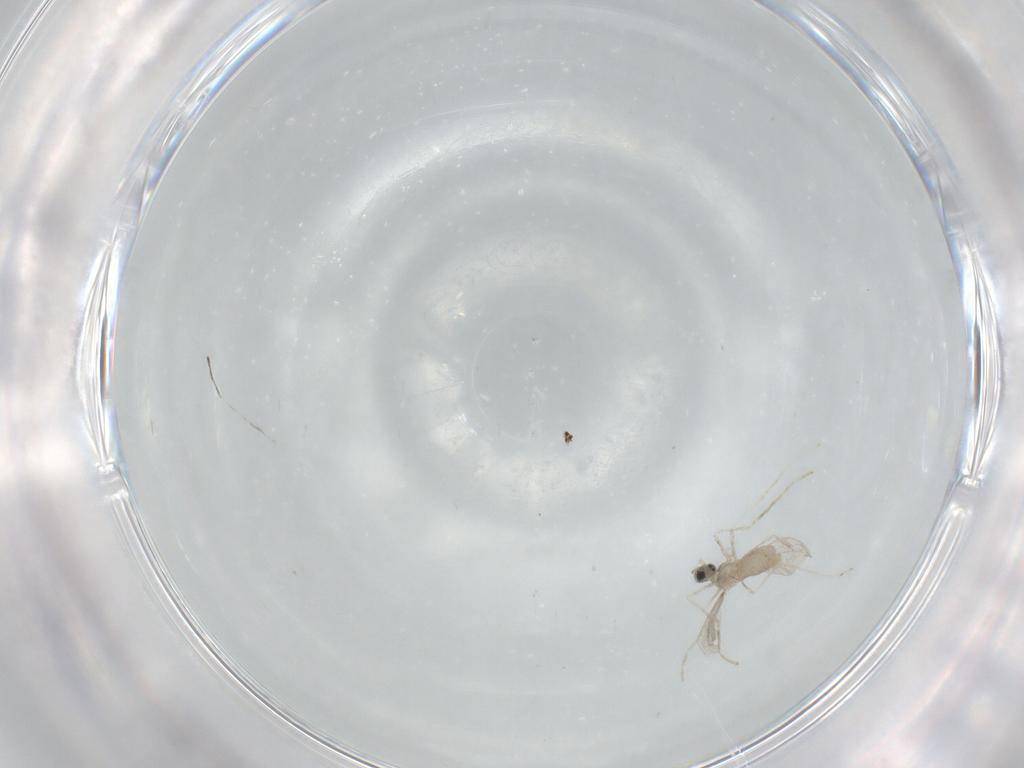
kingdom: Animalia
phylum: Arthropoda
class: Insecta
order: Diptera
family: Cecidomyiidae
